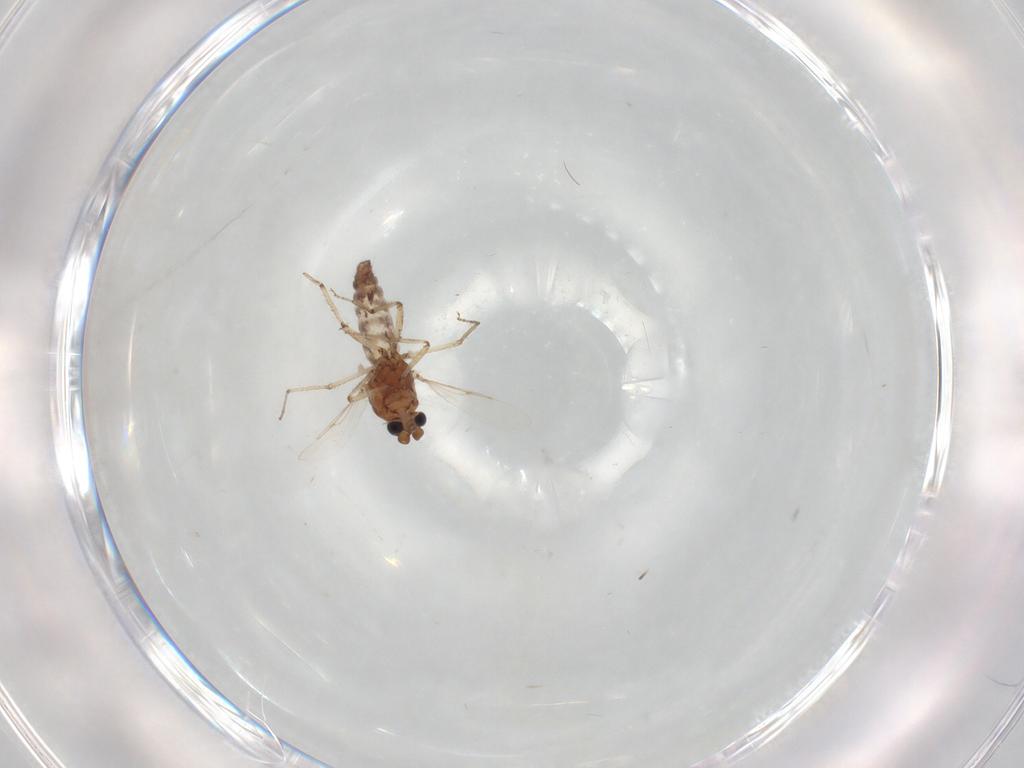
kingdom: Animalia
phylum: Arthropoda
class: Insecta
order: Diptera
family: Ceratopogonidae
